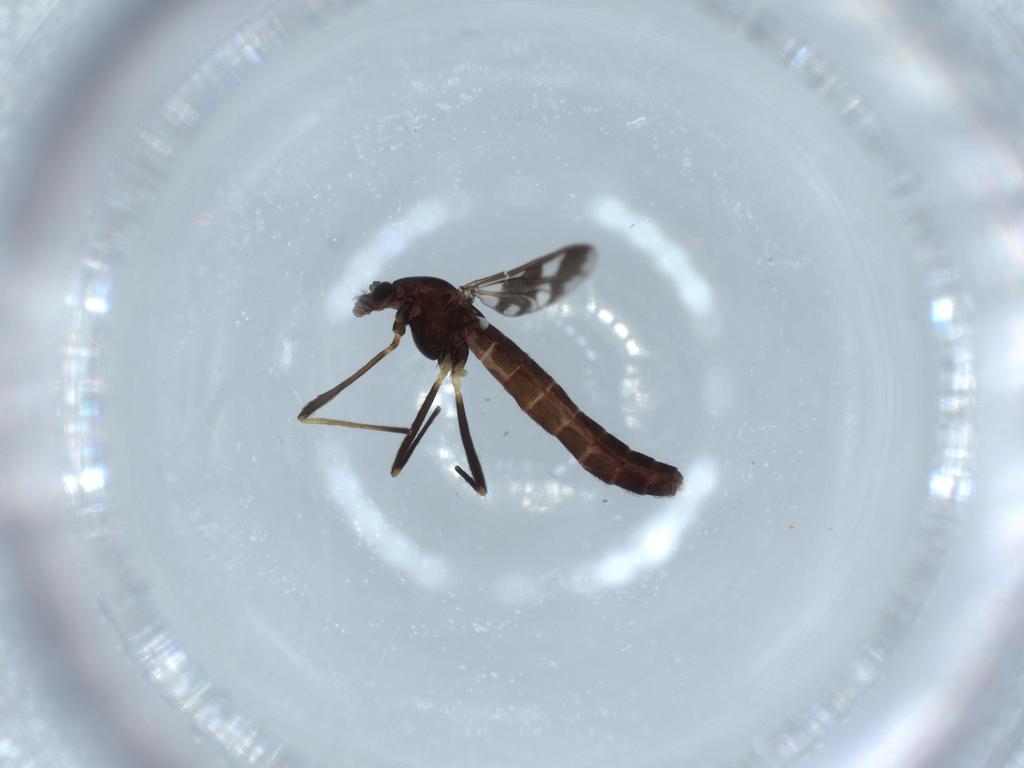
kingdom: Animalia
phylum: Arthropoda
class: Insecta
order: Diptera
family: Chironomidae
